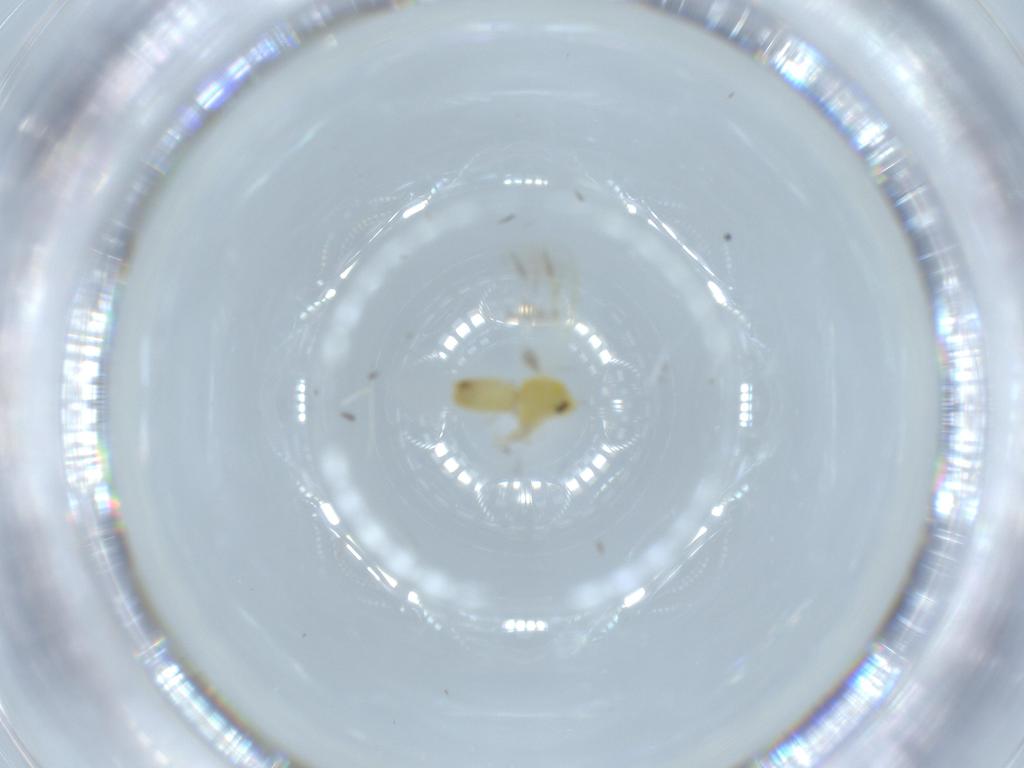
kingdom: Animalia
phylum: Arthropoda
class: Insecta
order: Hemiptera
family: Aleyrodidae
